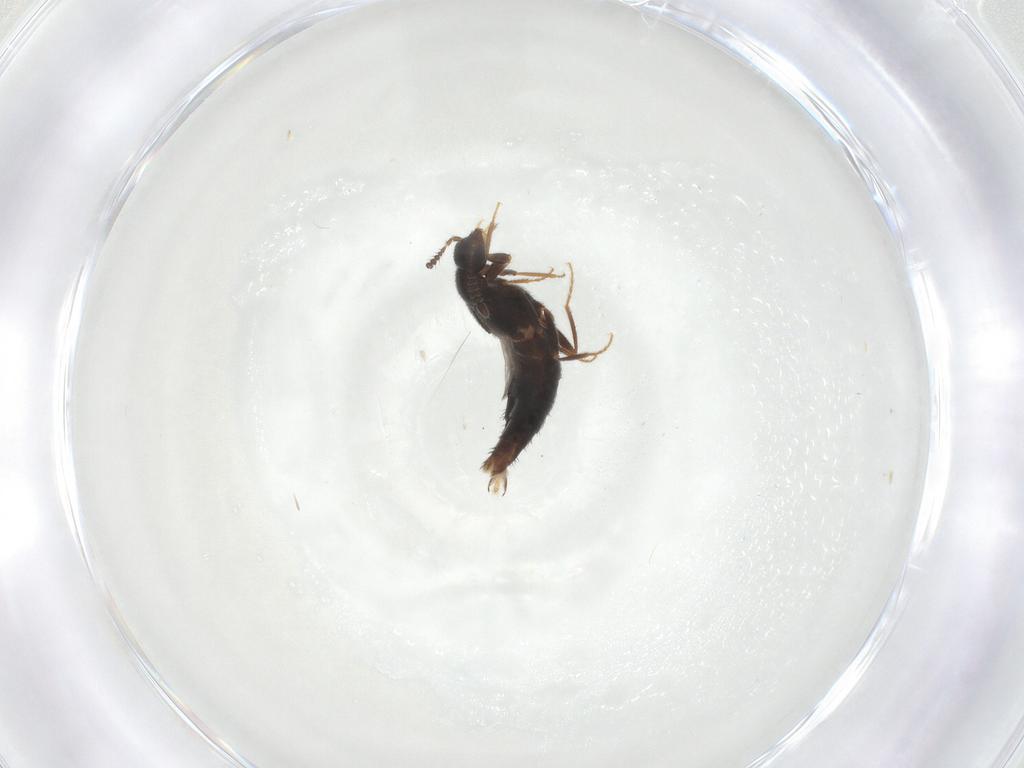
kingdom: Animalia
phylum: Arthropoda
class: Insecta
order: Coleoptera
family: Staphylinidae
